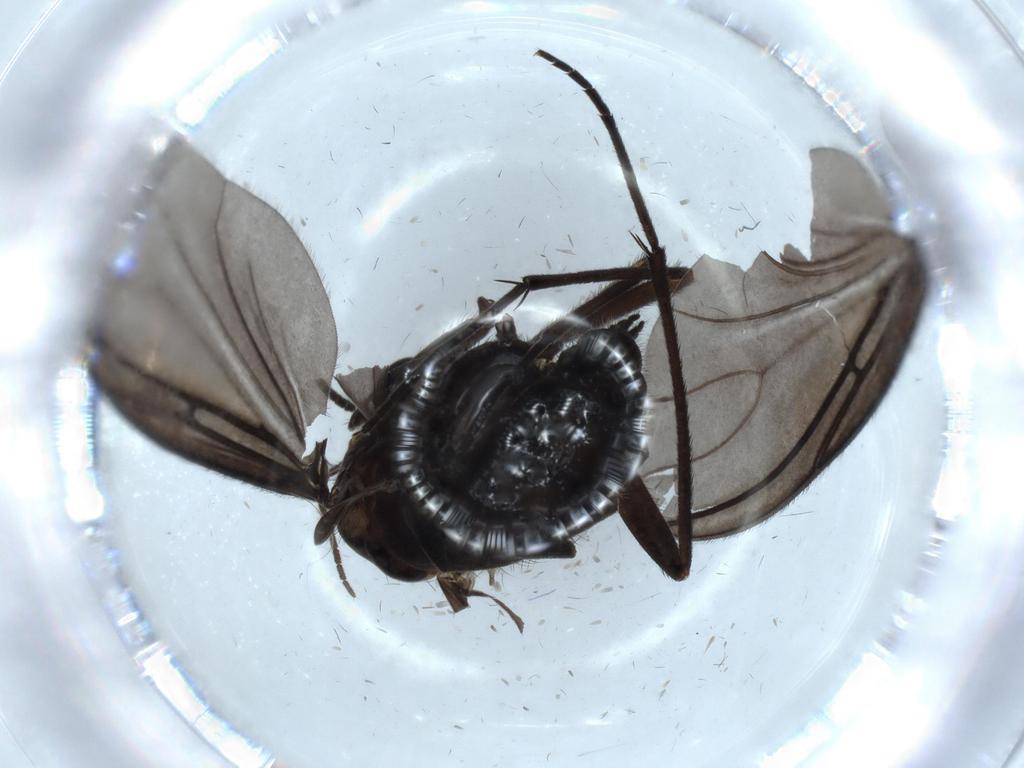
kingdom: Animalia
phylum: Arthropoda
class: Insecta
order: Diptera
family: Sciaridae
